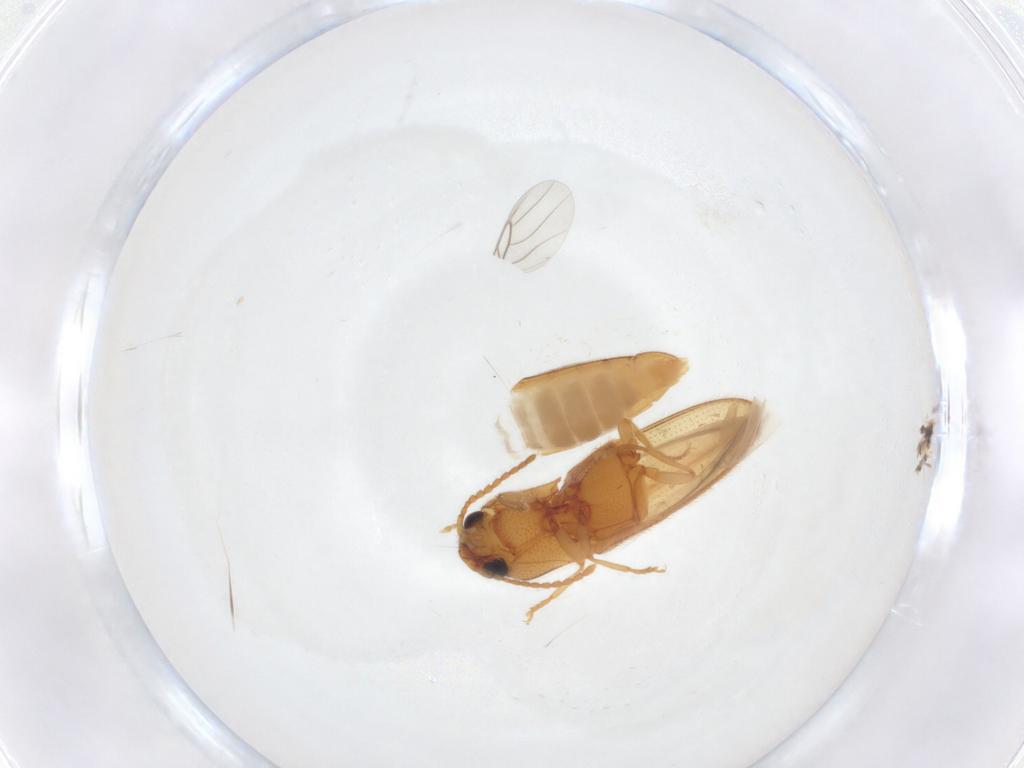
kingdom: Animalia
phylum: Arthropoda
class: Insecta
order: Coleoptera
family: Elateridae
